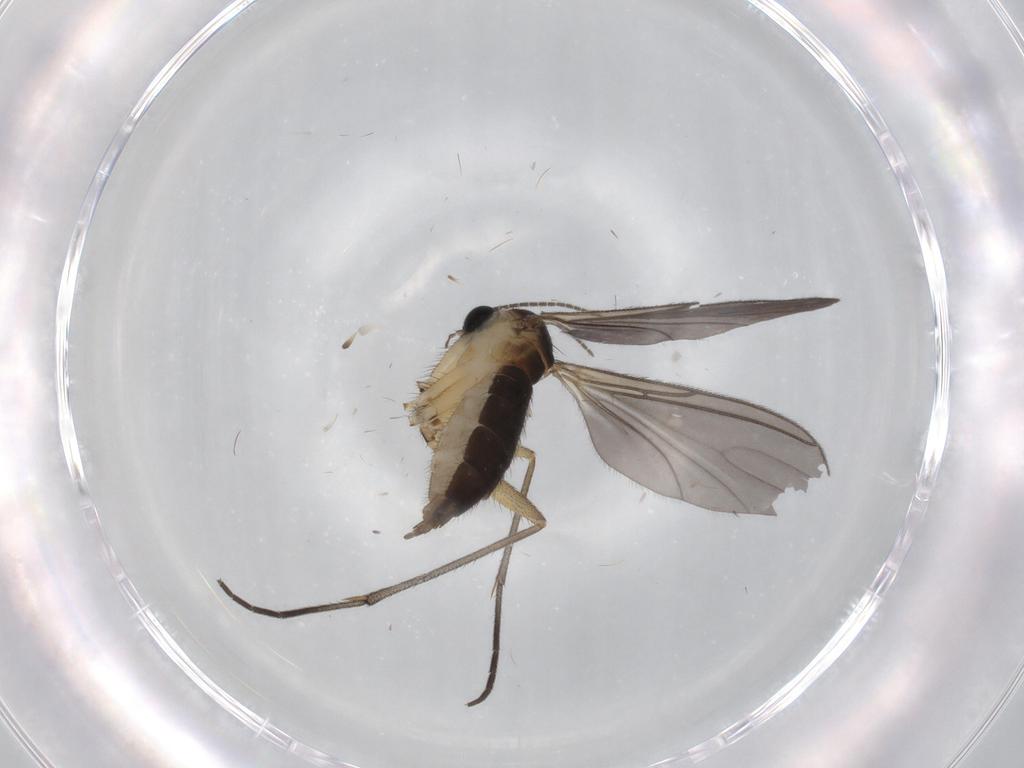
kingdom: Animalia
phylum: Arthropoda
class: Insecta
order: Diptera
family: Sciaridae
